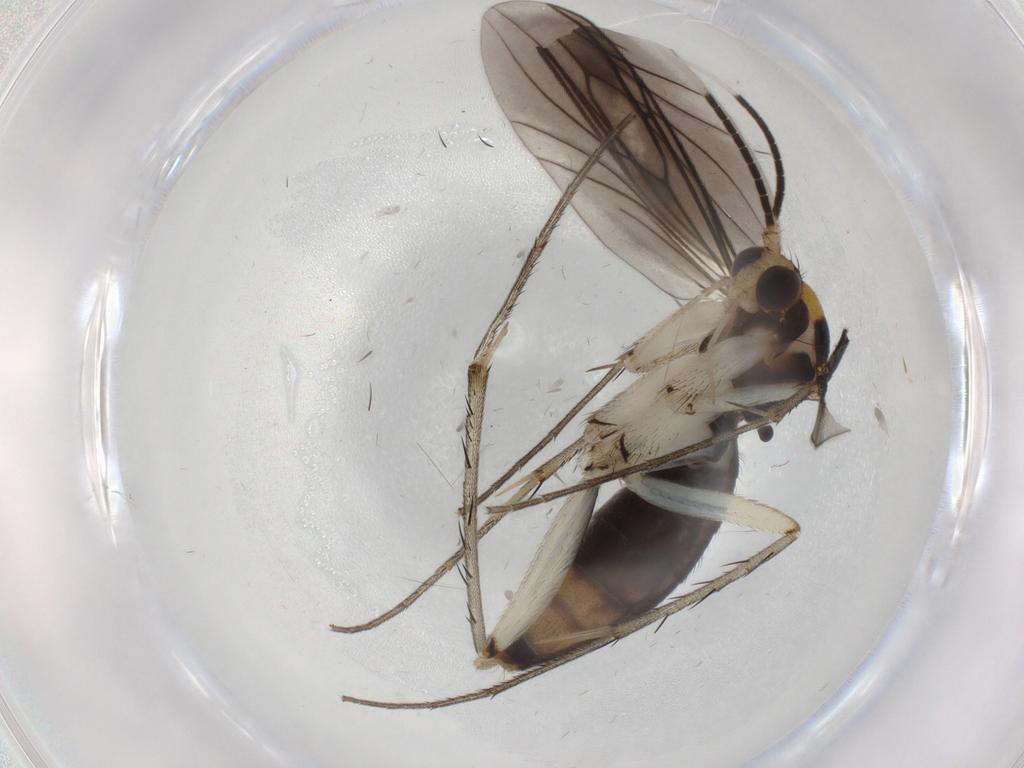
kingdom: Animalia
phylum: Arthropoda
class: Insecta
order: Diptera
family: Mycetophilidae
